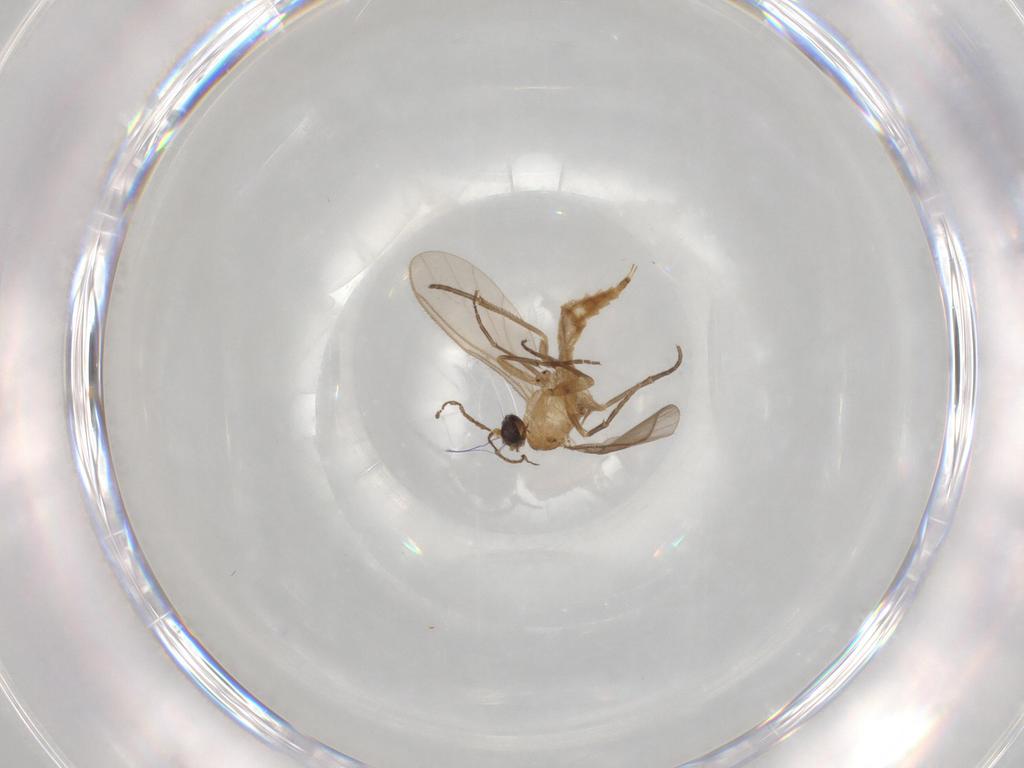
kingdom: Animalia
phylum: Arthropoda
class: Insecta
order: Diptera
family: Sciaridae
